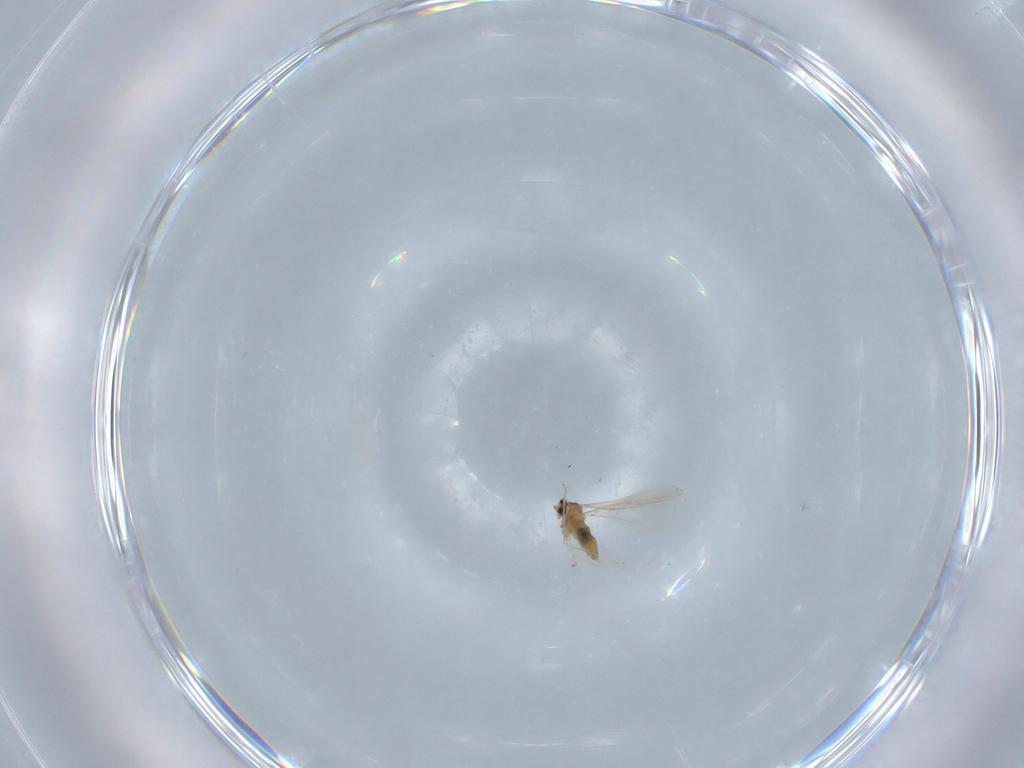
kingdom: Animalia
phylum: Arthropoda
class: Insecta
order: Diptera
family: Cecidomyiidae
